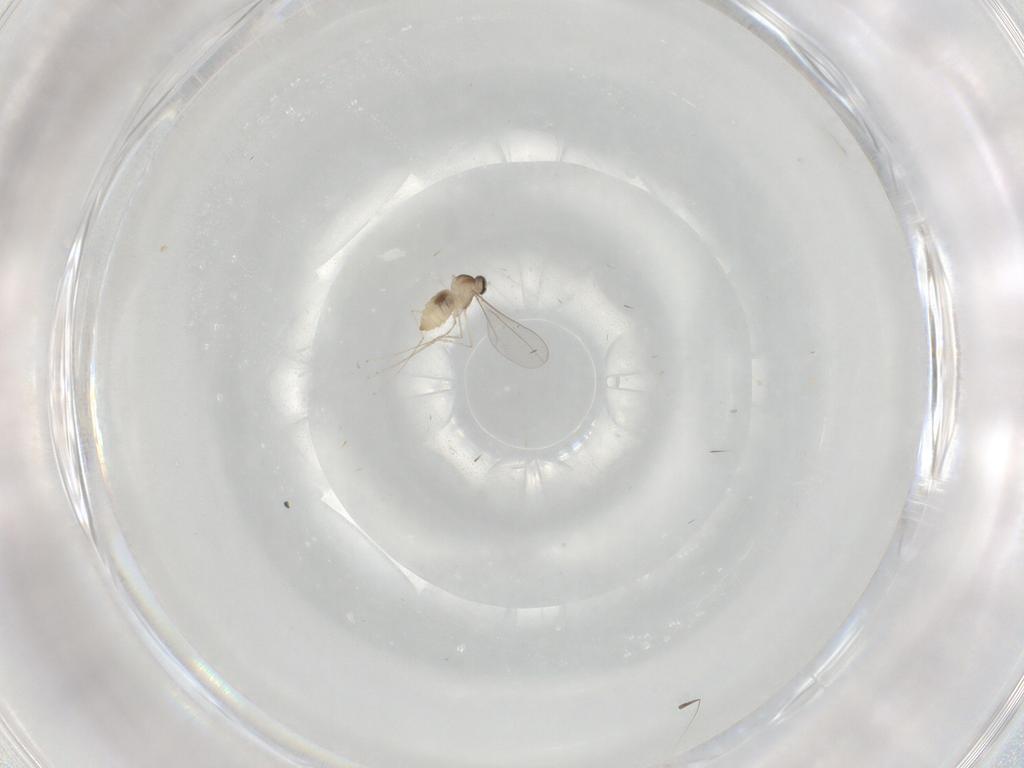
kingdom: Animalia
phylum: Arthropoda
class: Insecta
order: Diptera
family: Cecidomyiidae
